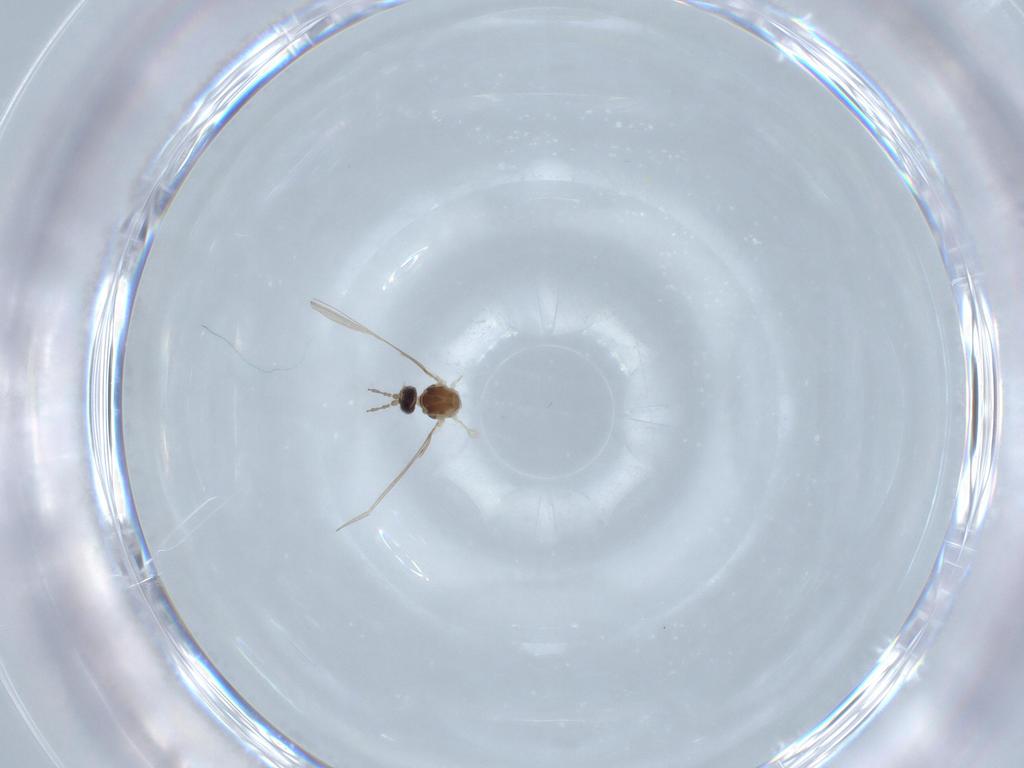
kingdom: Animalia
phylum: Arthropoda
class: Insecta
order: Diptera
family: Cecidomyiidae
